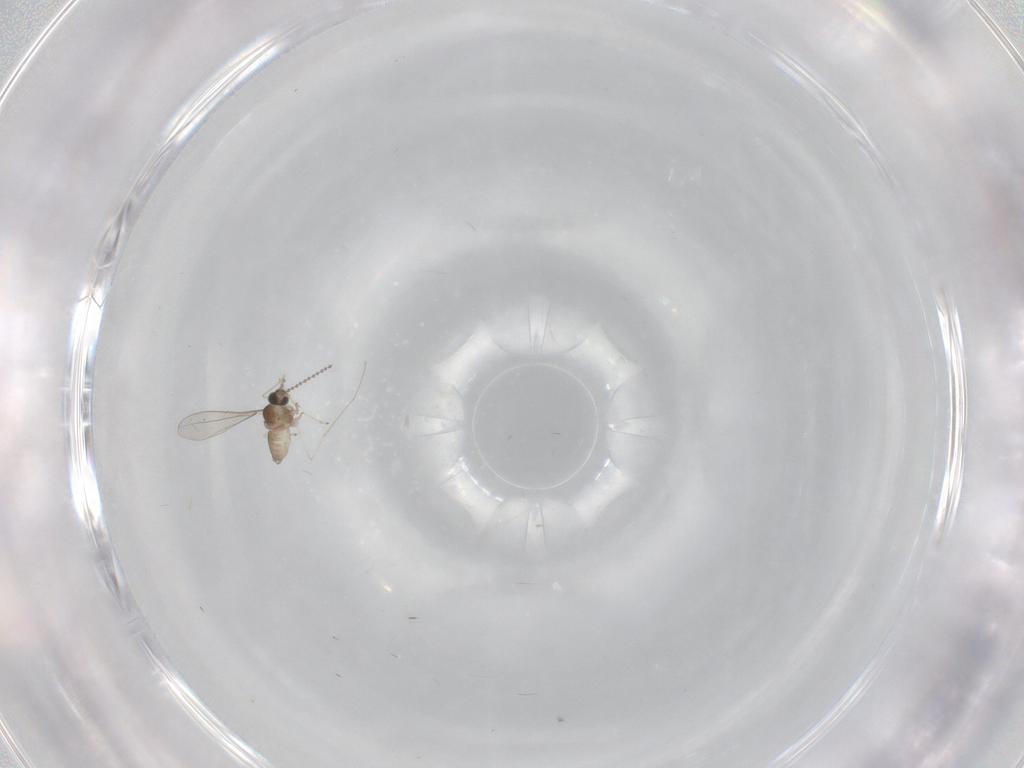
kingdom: Animalia
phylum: Arthropoda
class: Insecta
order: Diptera
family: Cecidomyiidae
